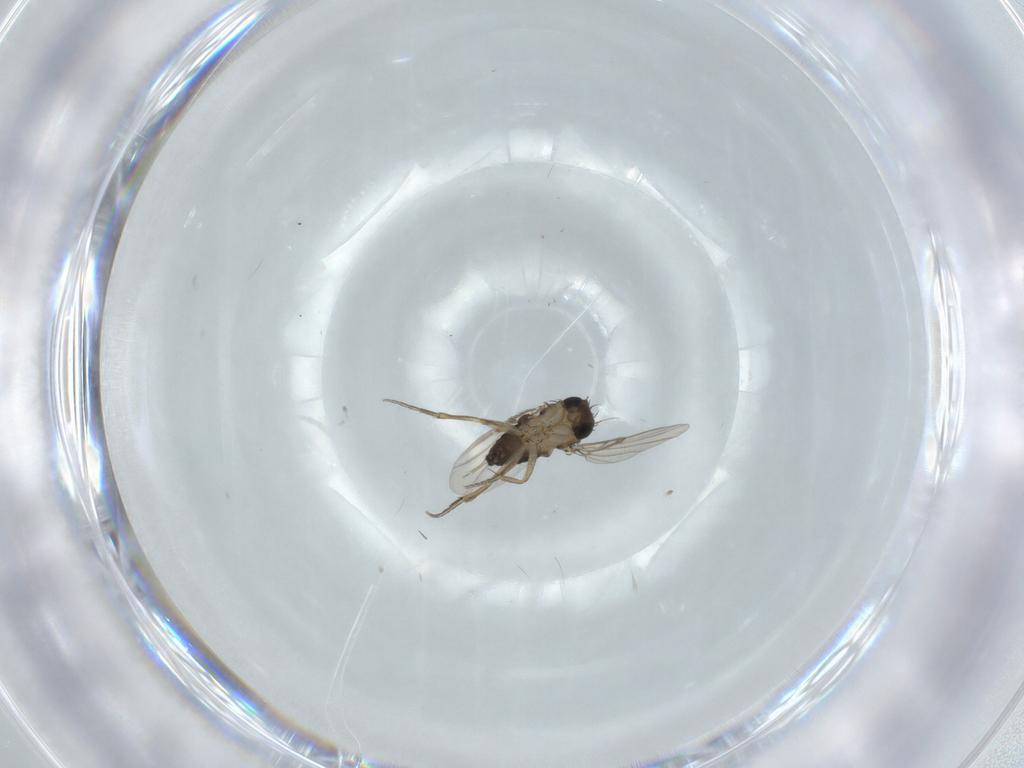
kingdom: Animalia
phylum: Arthropoda
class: Insecta
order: Diptera
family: Phoridae
